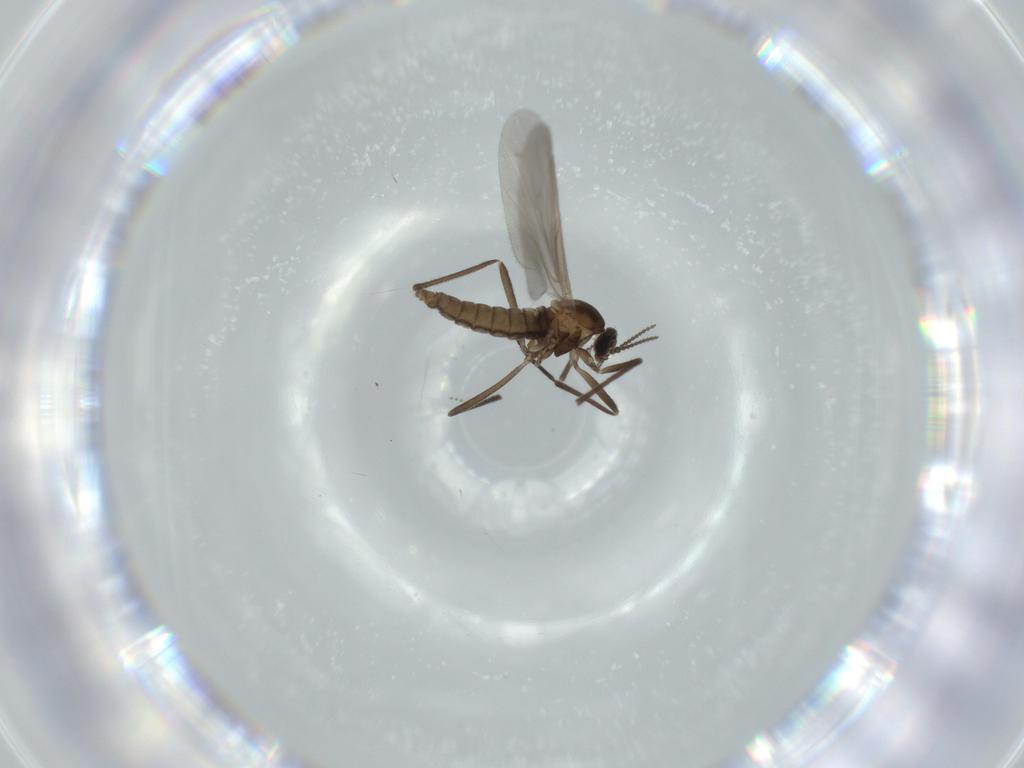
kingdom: Animalia
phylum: Arthropoda
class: Insecta
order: Diptera
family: Cecidomyiidae
